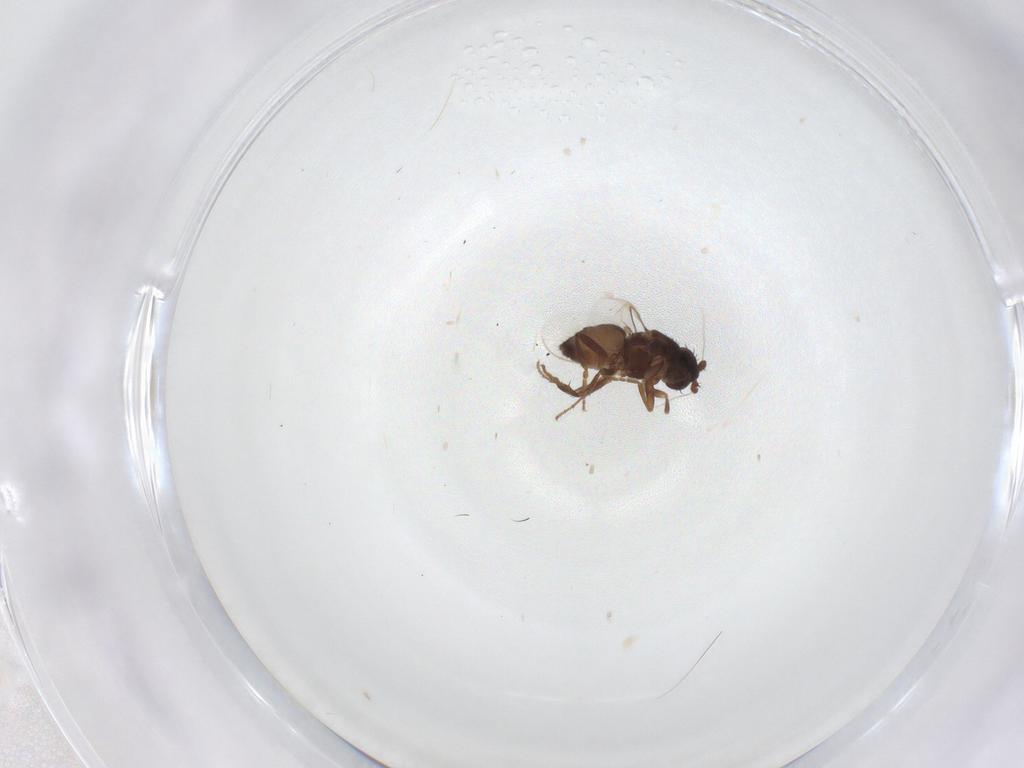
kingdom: Animalia
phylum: Arthropoda
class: Insecta
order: Diptera
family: Sphaeroceridae
